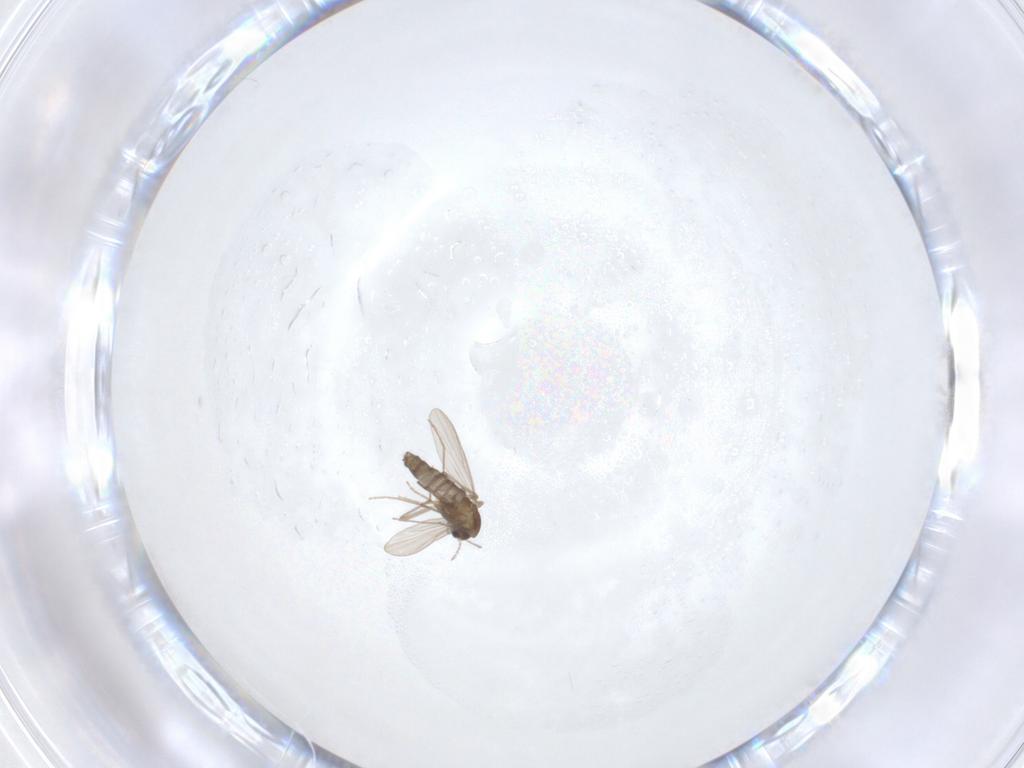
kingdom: Animalia
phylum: Arthropoda
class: Insecta
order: Diptera
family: Chironomidae
